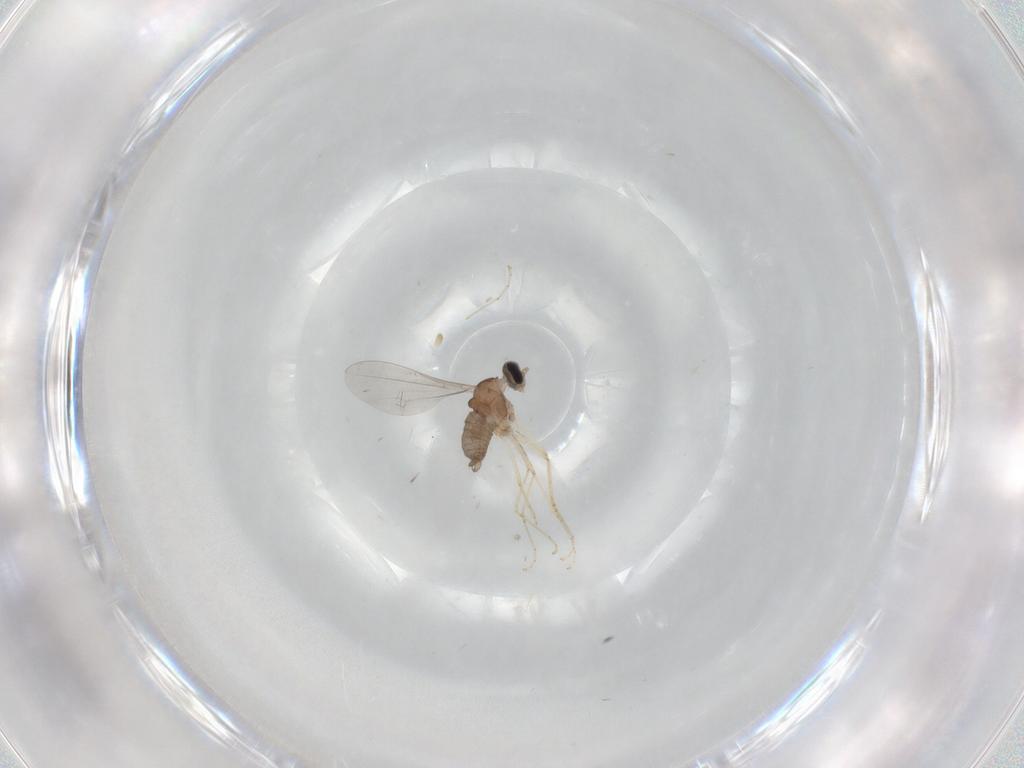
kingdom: Animalia
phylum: Arthropoda
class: Insecta
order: Diptera
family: Cecidomyiidae
